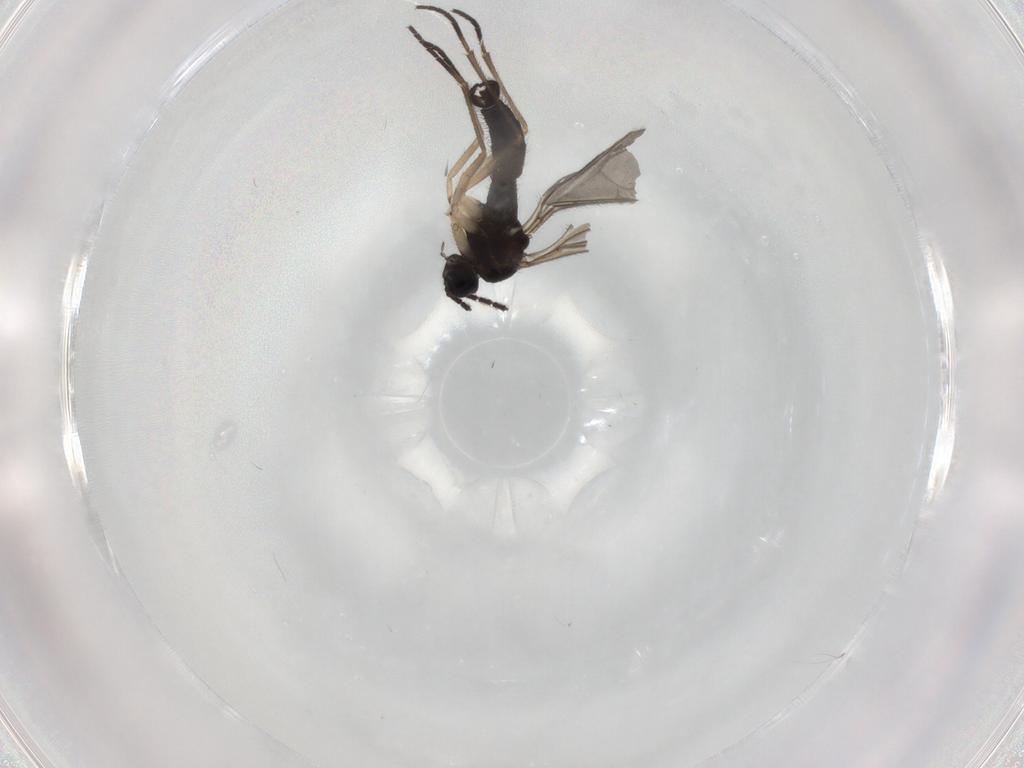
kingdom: Animalia
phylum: Arthropoda
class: Insecta
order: Diptera
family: Sciaridae
